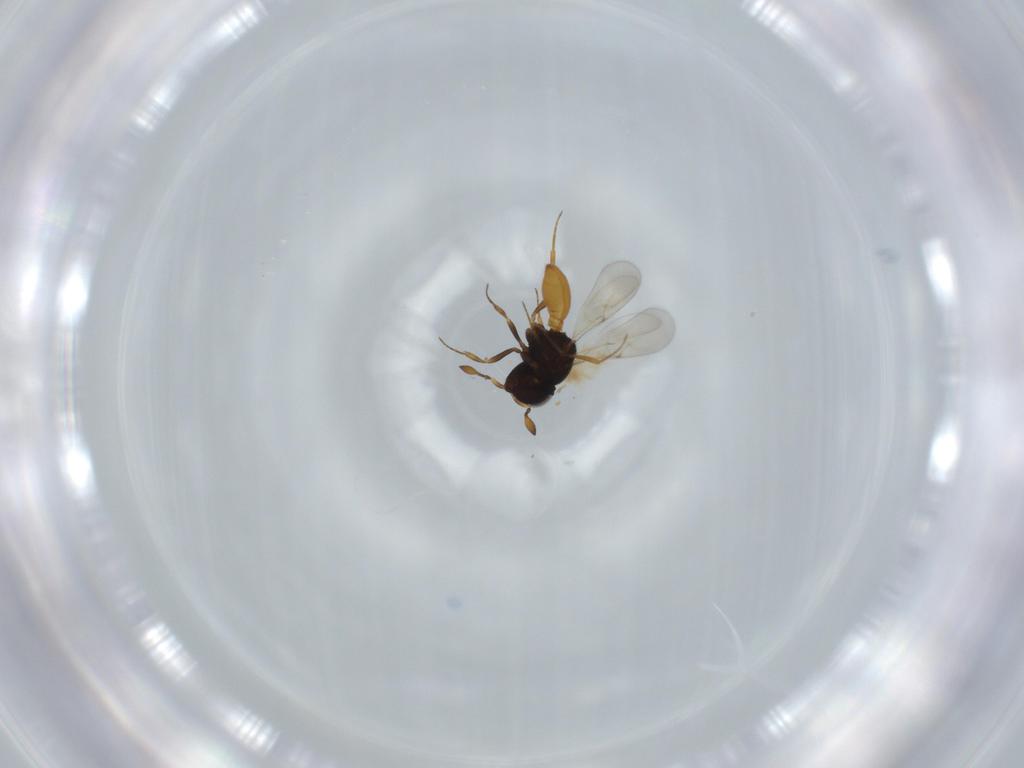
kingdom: Animalia
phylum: Arthropoda
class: Insecta
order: Hymenoptera
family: Scelionidae
